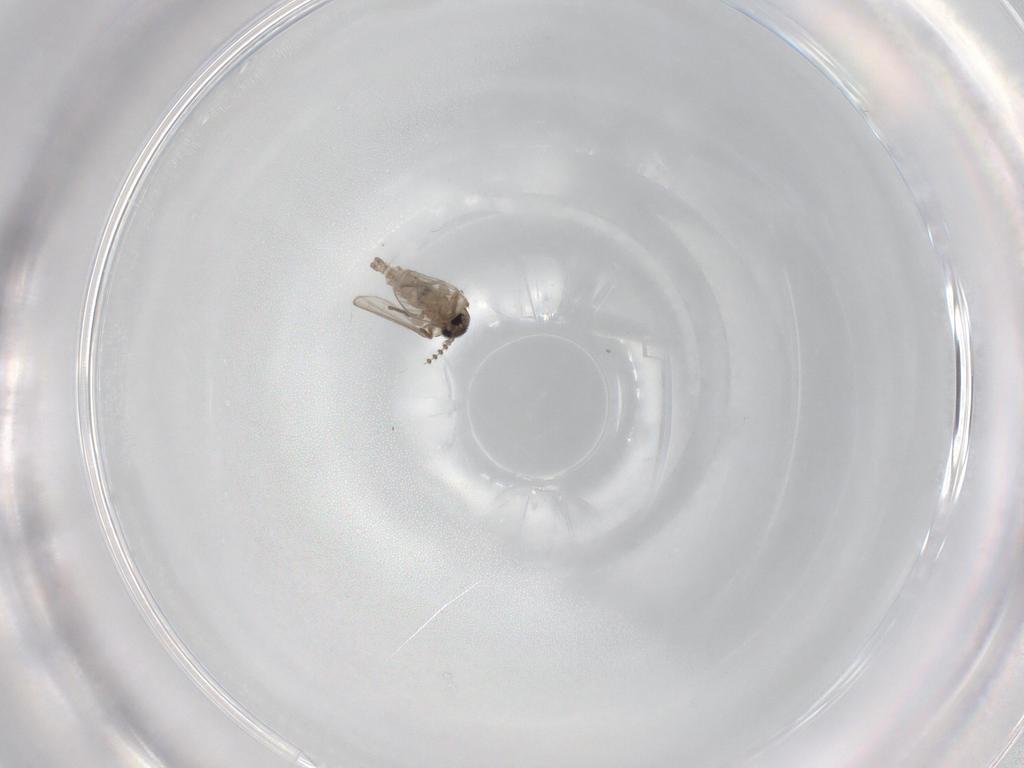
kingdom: Animalia
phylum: Arthropoda
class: Insecta
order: Diptera
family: Psychodidae
